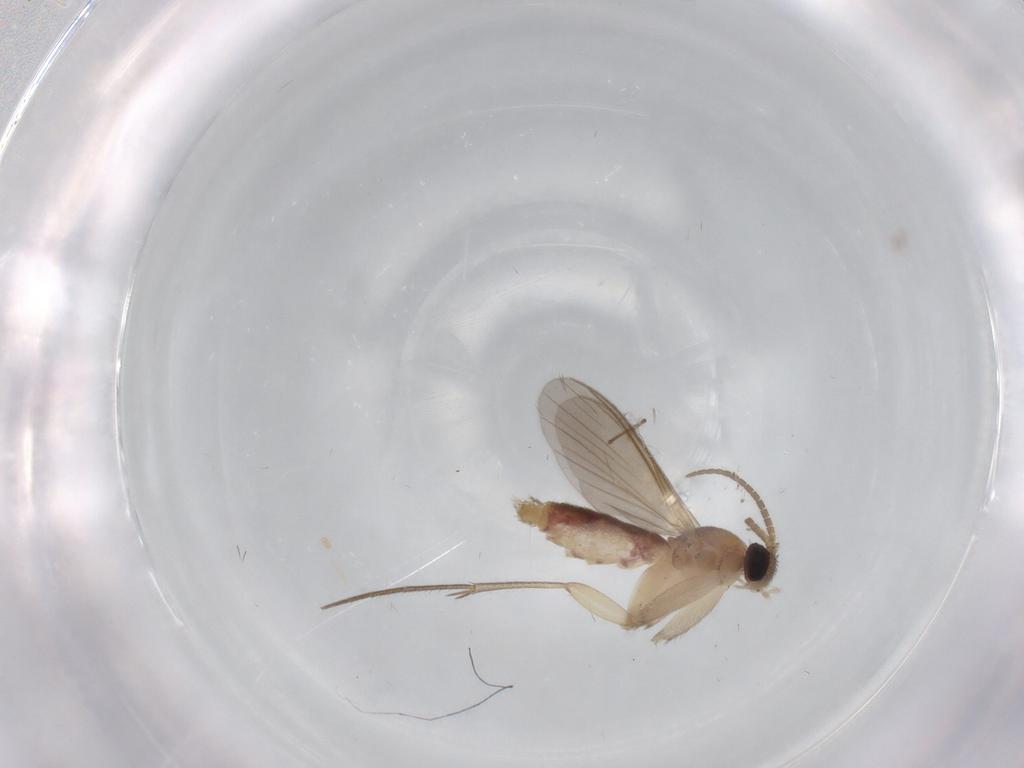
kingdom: Animalia
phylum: Arthropoda
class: Insecta
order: Diptera
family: Mycetophilidae
